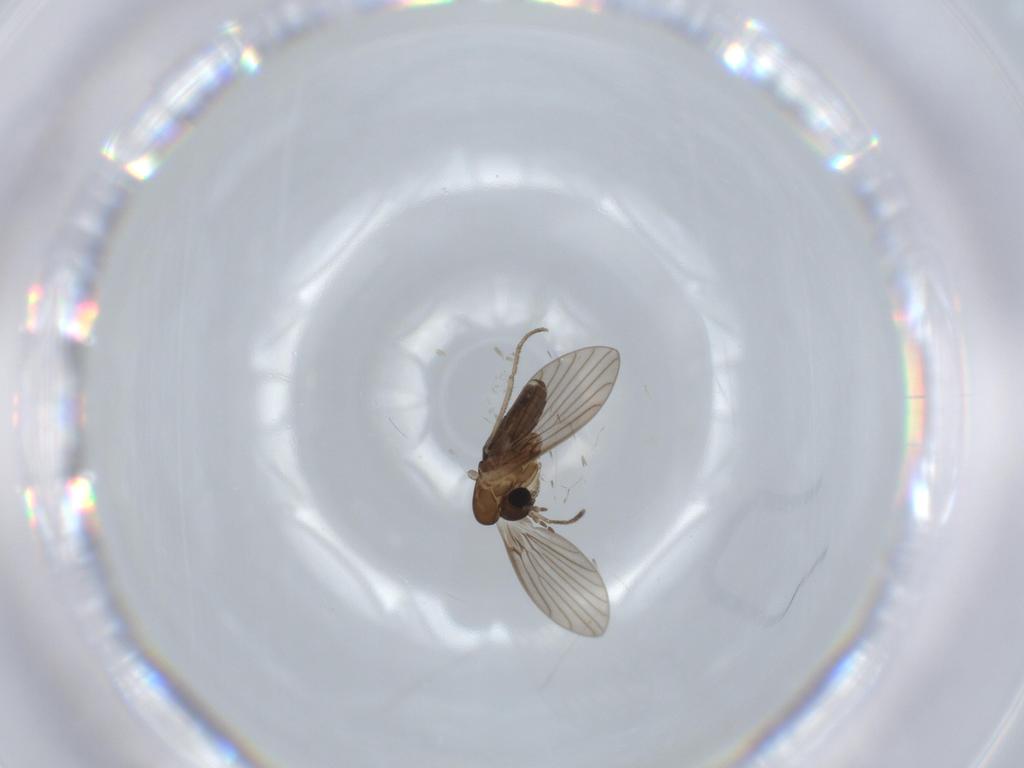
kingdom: Animalia
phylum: Arthropoda
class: Insecta
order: Diptera
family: Psychodidae
